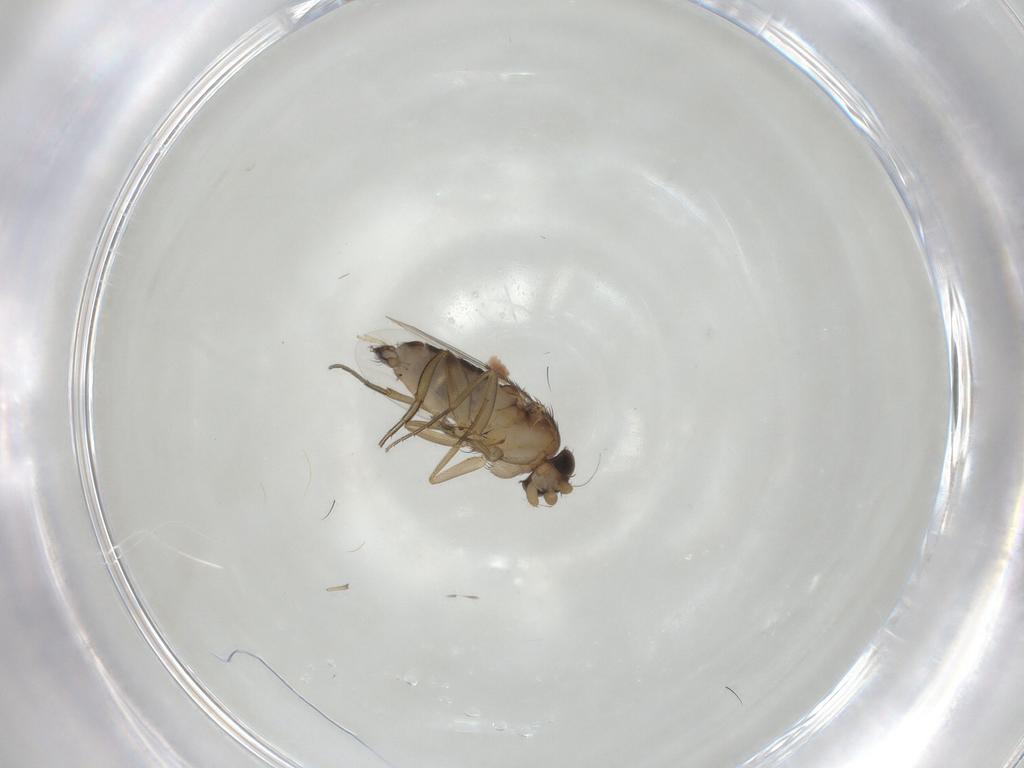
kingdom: Animalia
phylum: Arthropoda
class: Insecta
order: Diptera
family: Cecidomyiidae
